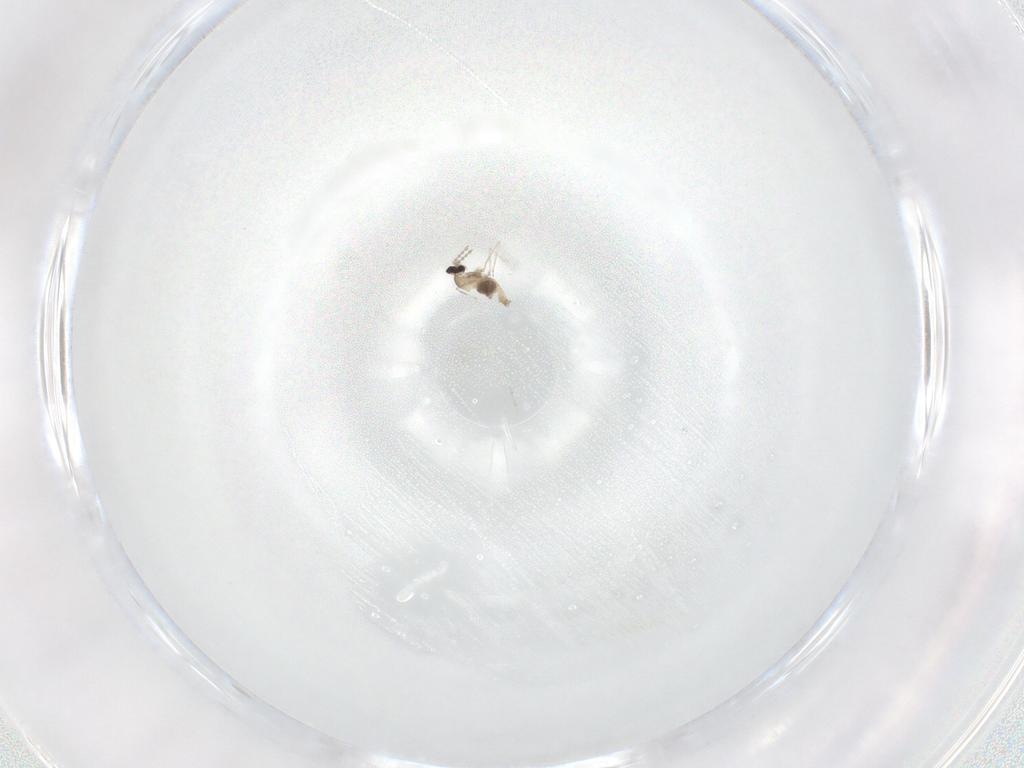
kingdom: Animalia
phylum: Arthropoda
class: Insecta
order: Diptera
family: Cecidomyiidae
